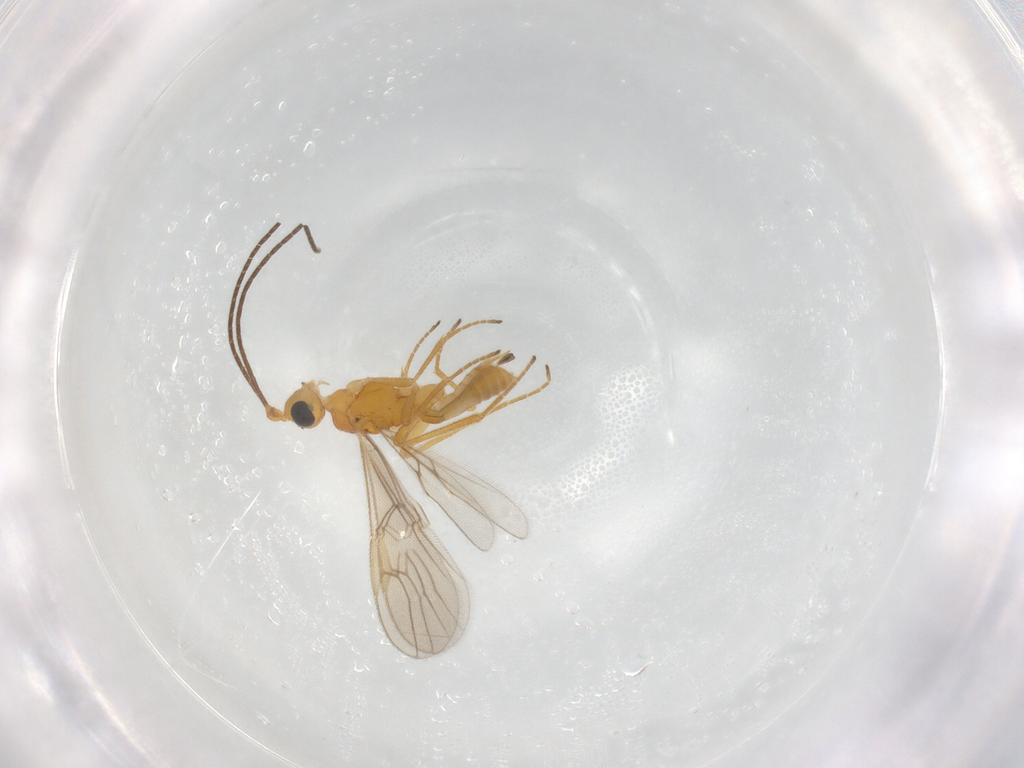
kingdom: Animalia
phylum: Arthropoda
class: Insecta
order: Hymenoptera
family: Braconidae
